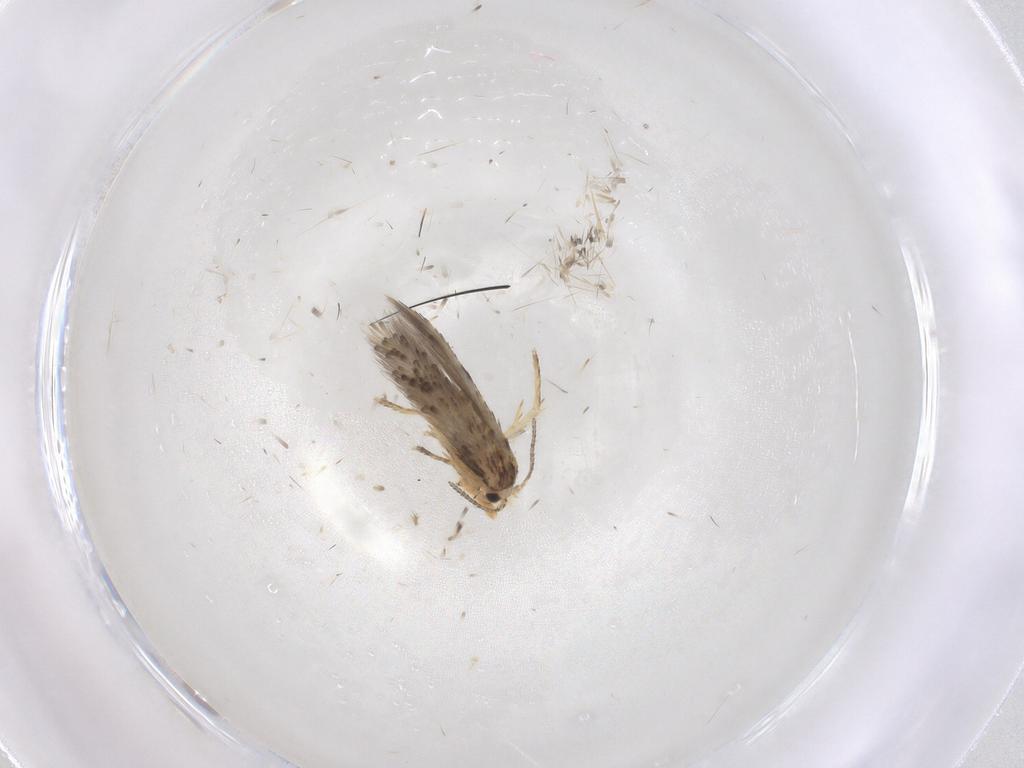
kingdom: Animalia
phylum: Arthropoda
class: Insecta
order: Lepidoptera
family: Nepticulidae
